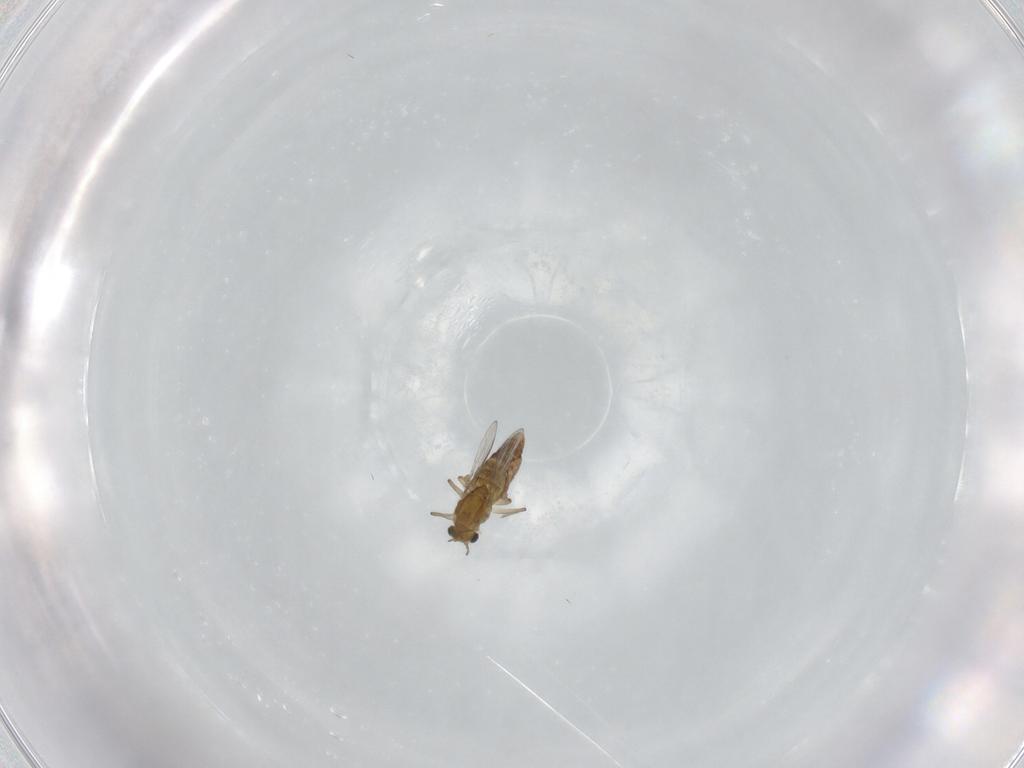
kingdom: Animalia
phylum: Arthropoda
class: Insecta
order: Diptera
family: Chironomidae
